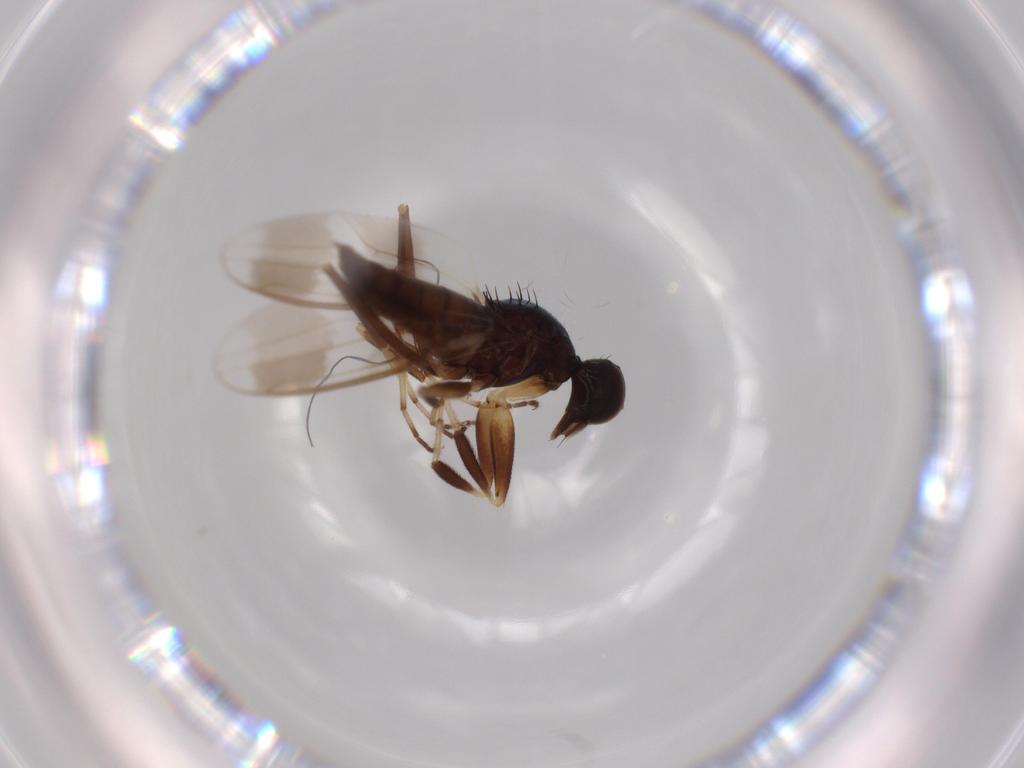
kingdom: Animalia
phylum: Arthropoda
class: Insecta
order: Diptera
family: Hybotidae
